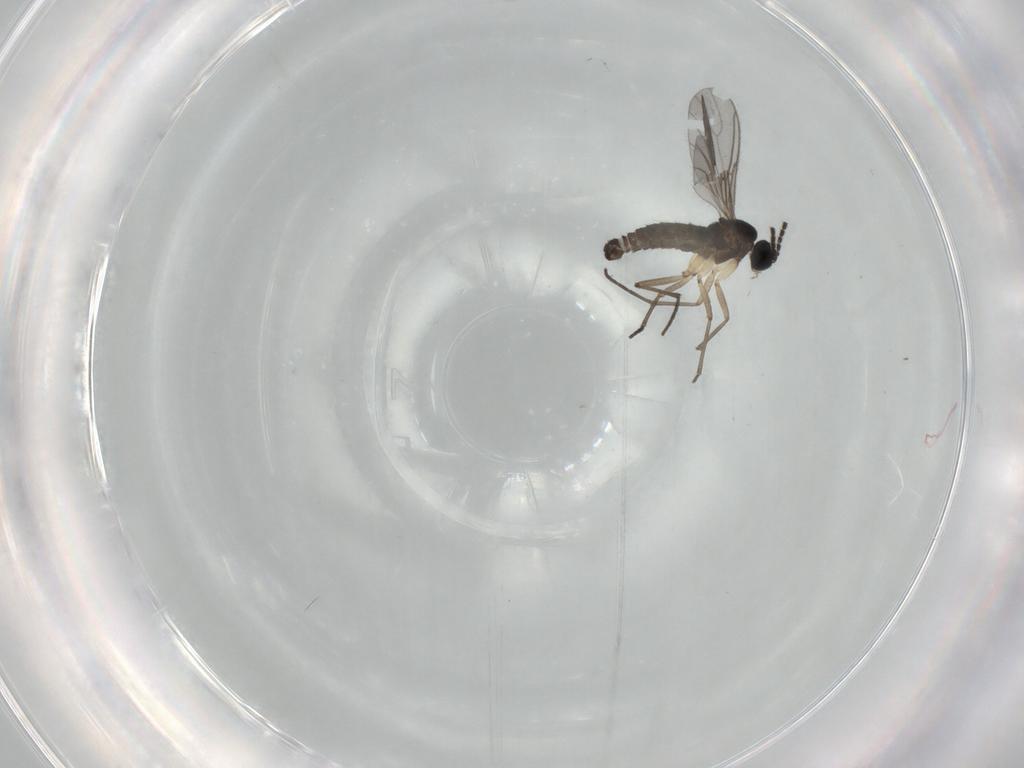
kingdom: Animalia
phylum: Arthropoda
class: Insecta
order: Diptera
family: Sciaridae
